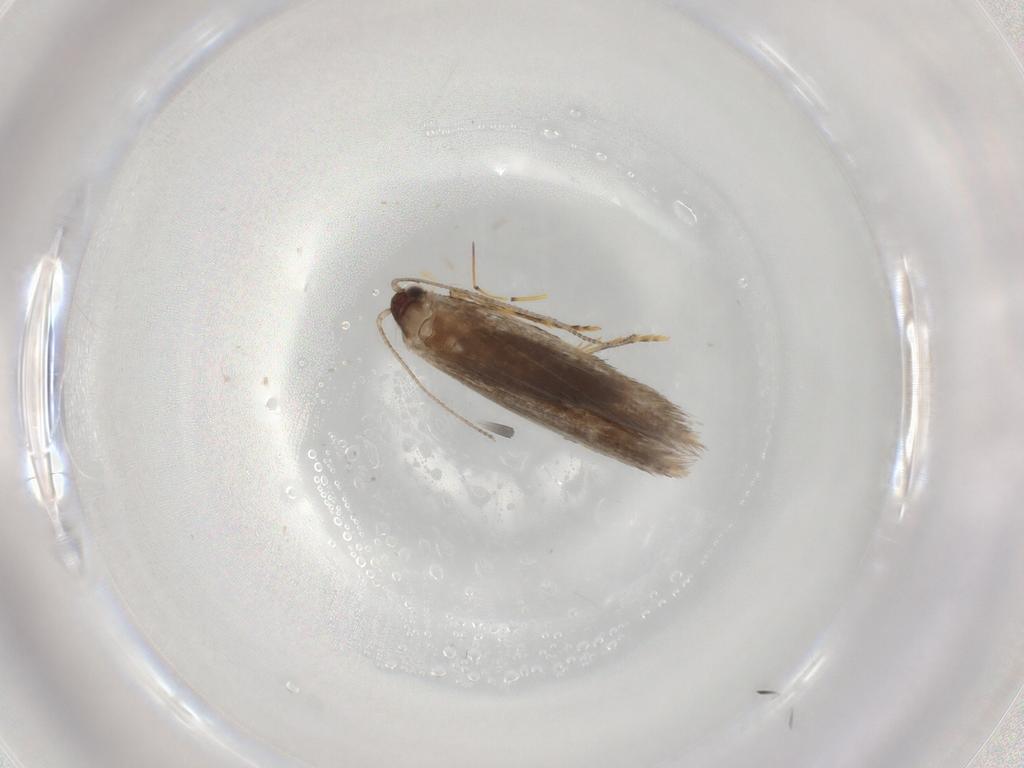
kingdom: Animalia
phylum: Arthropoda
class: Insecta
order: Lepidoptera
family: Tineidae
